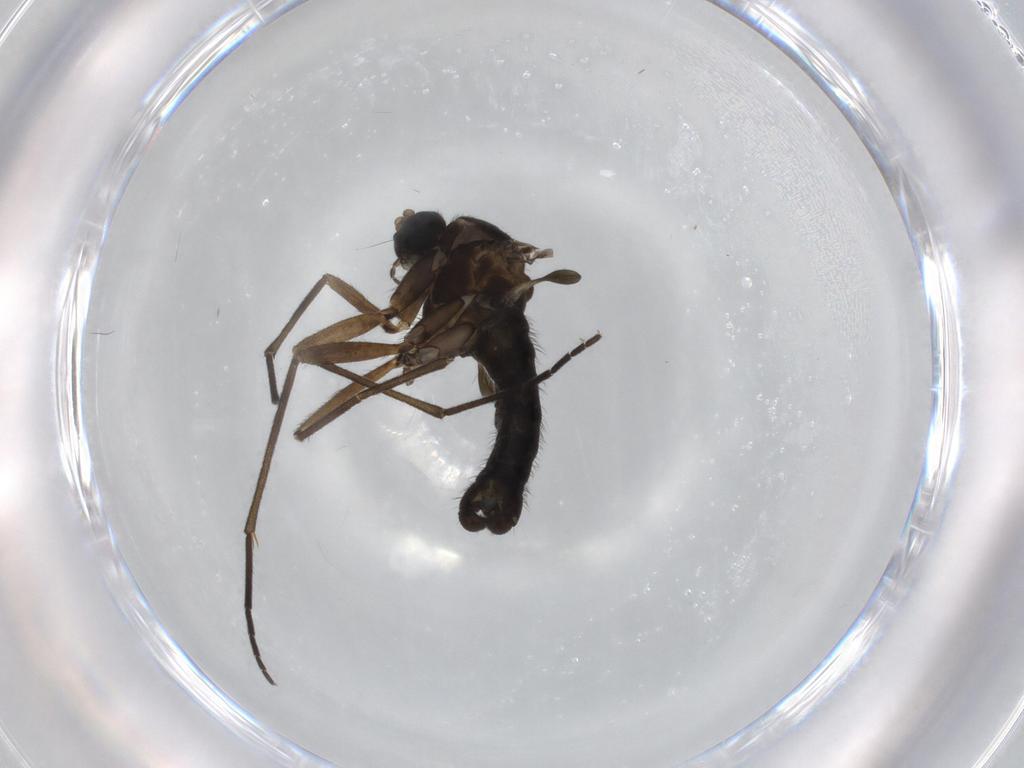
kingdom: Animalia
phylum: Arthropoda
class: Insecta
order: Diptera
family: Sciaridae
